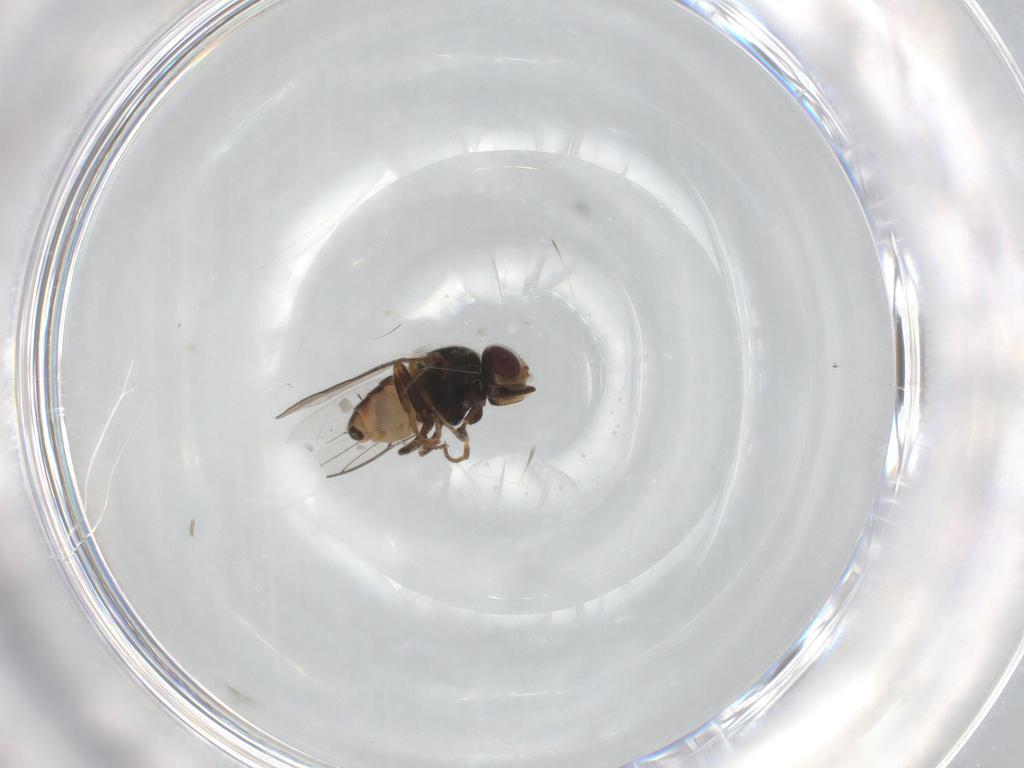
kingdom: Animalia
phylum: Arthropoda
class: Insecta
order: Diptera
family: Chloropidae
